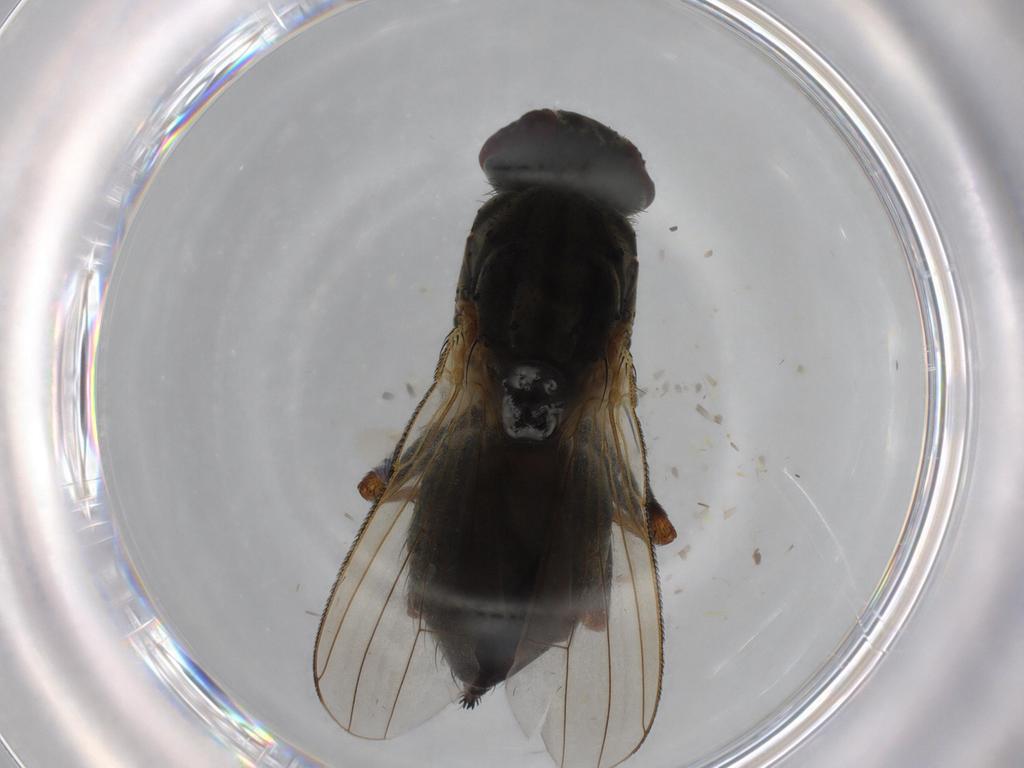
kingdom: Animalia
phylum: Arthropoda
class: Insecta
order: Diptera
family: Muscidae
